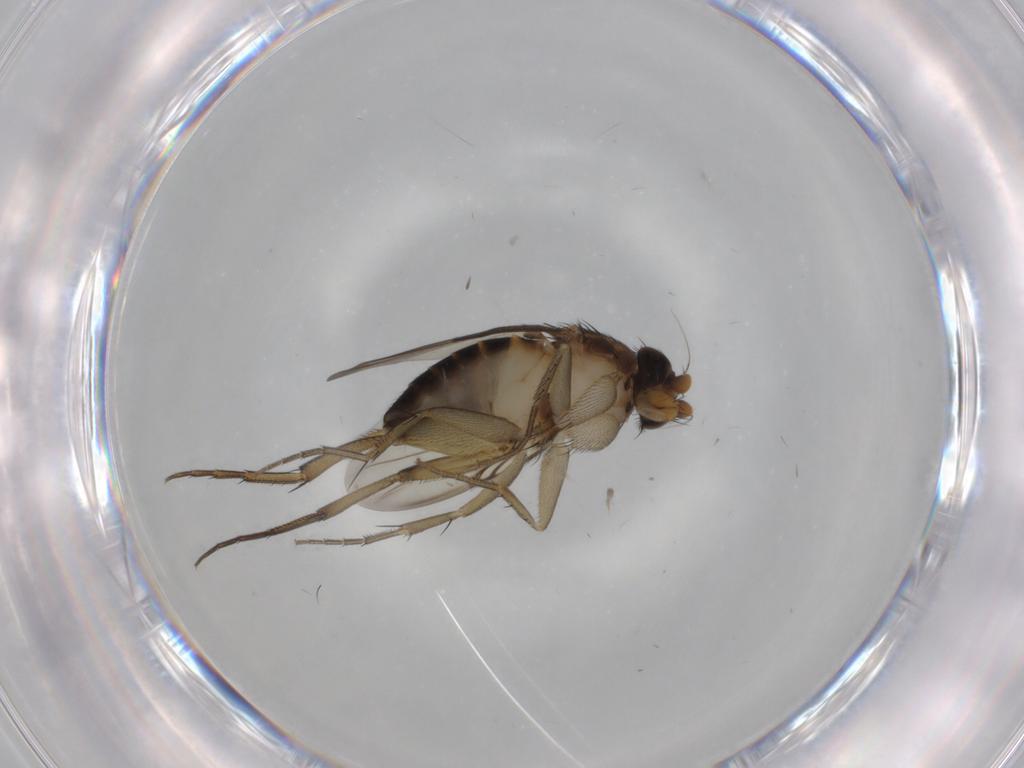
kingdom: Animalia
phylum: Arthropoda
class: Insecta
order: Diptera
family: Phoridae
